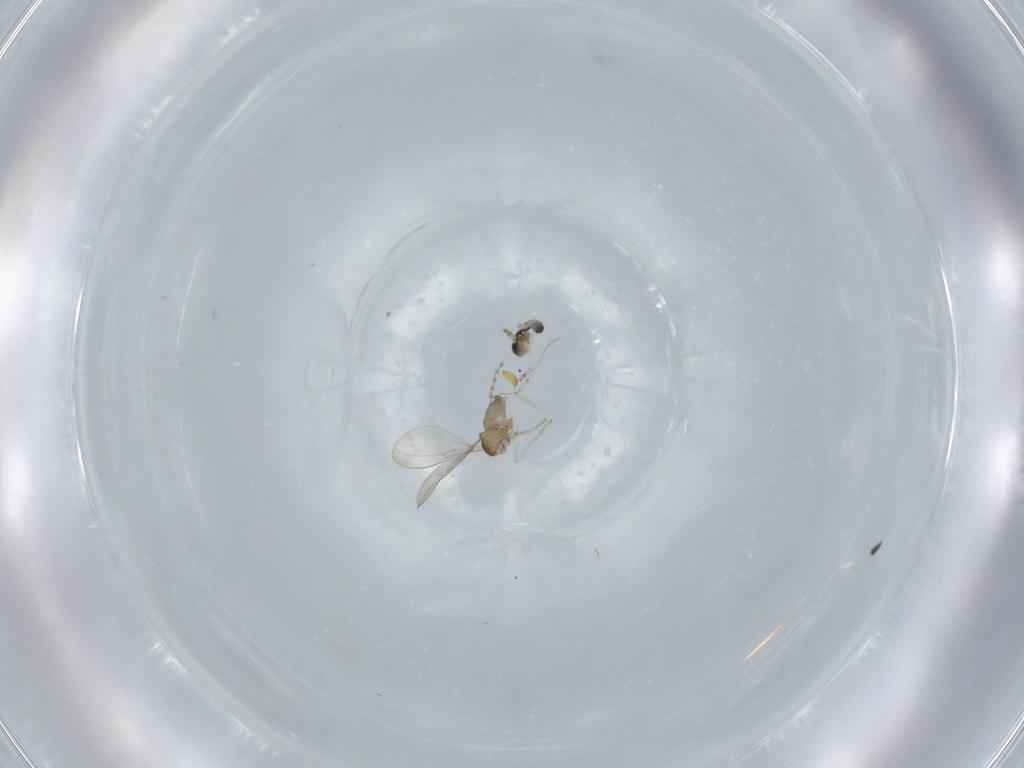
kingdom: Animalia
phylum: Arthropoda
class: Insecta
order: Diptera
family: Cecidomyiidae
